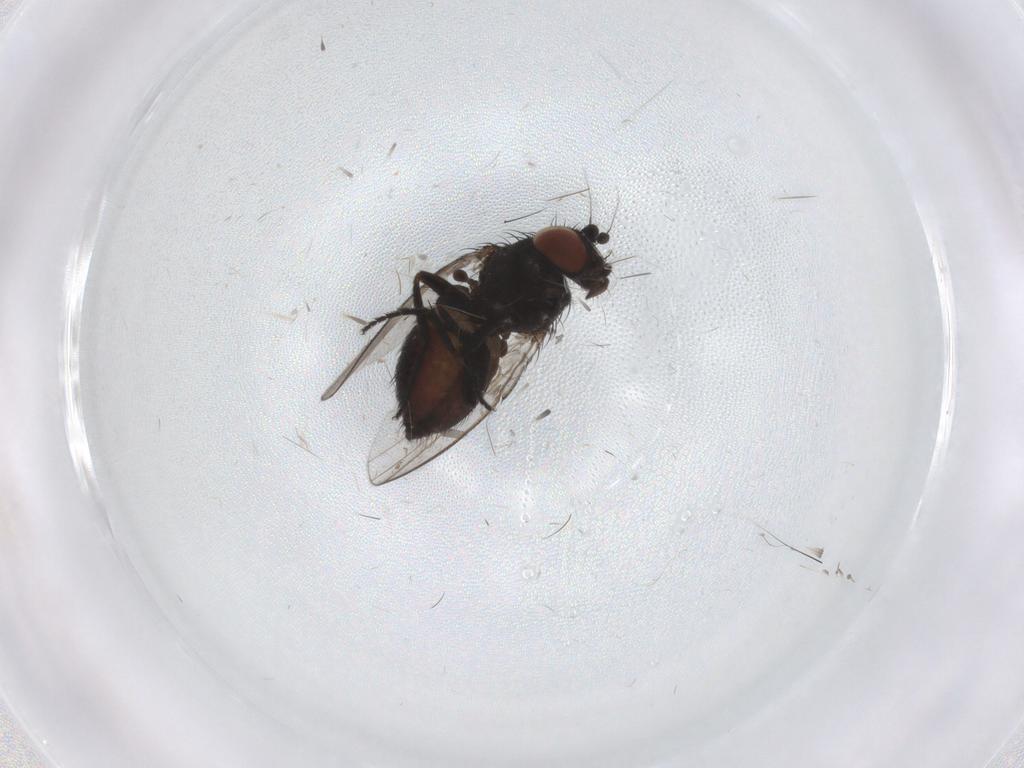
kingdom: Animalia
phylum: Arthropoda
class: Insecta
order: Diptera
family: Milichiidae
